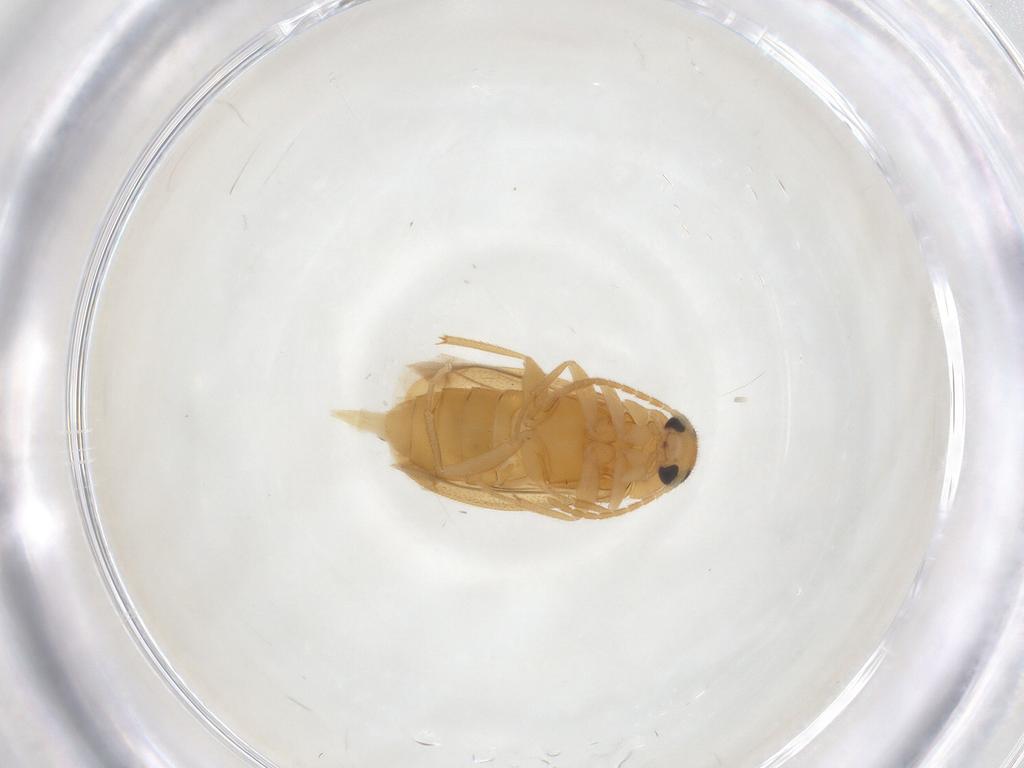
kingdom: Animalia
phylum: Arthropoda
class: Insecta
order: Coleoptera
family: Scraptiidae
